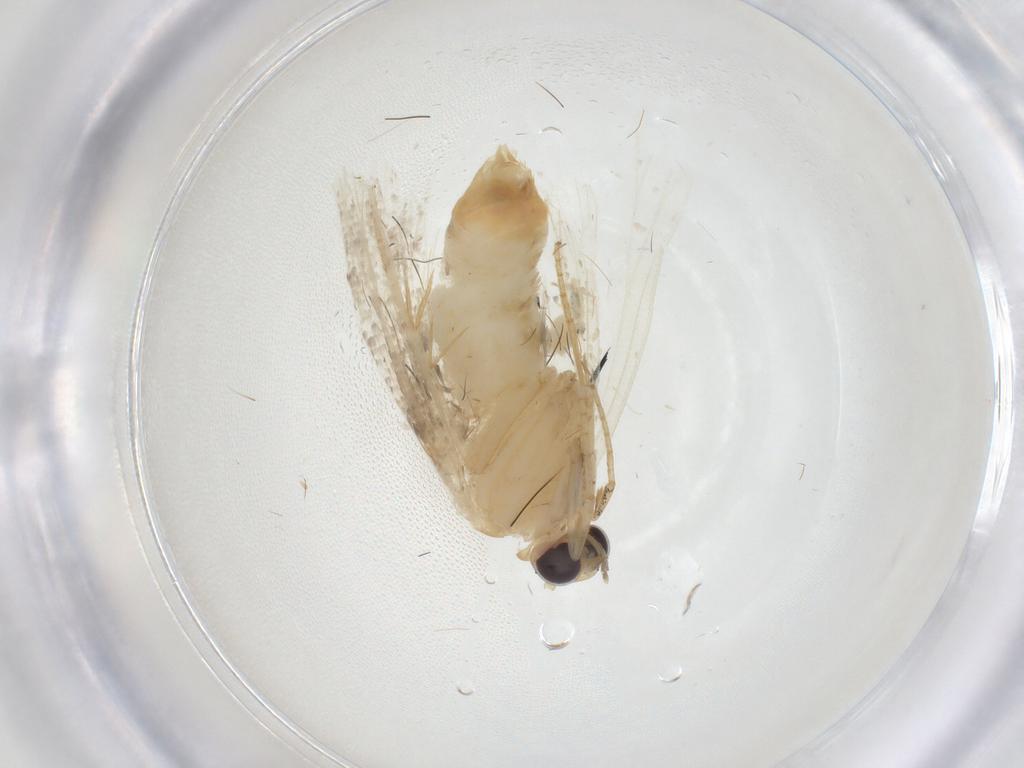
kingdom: Animalia
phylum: Arthropoda
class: Insecta
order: Lepidoptera
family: Erebidae
